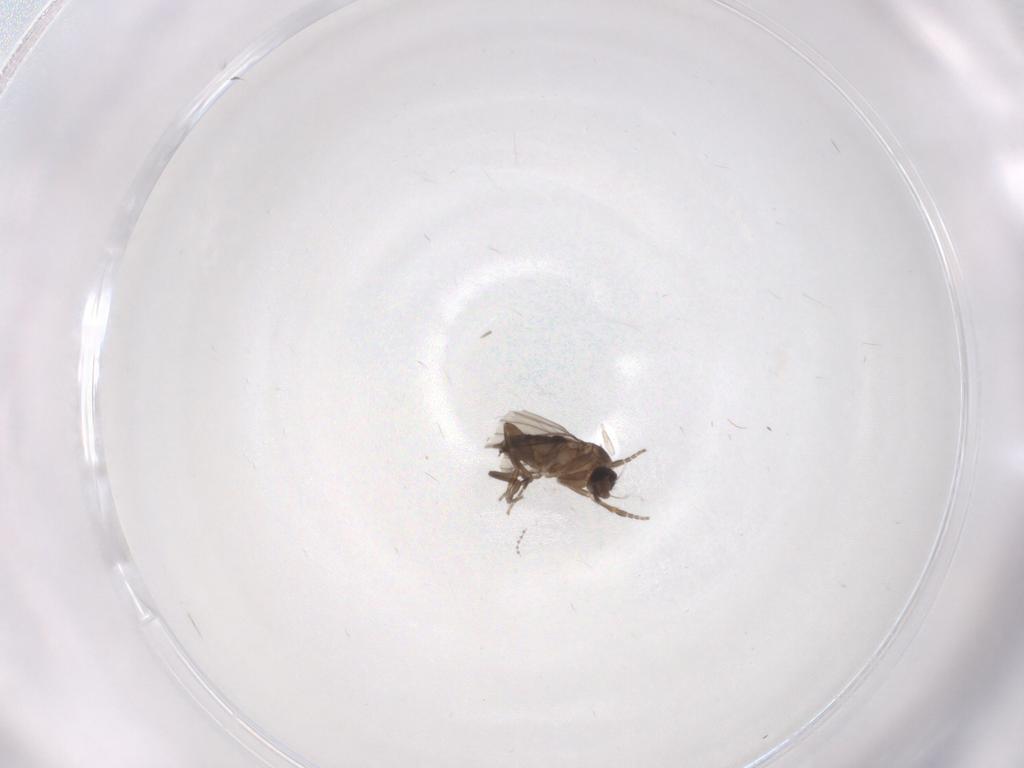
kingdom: Animalia
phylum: Arthropoda
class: Insecta
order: Diptera
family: Phoridae
